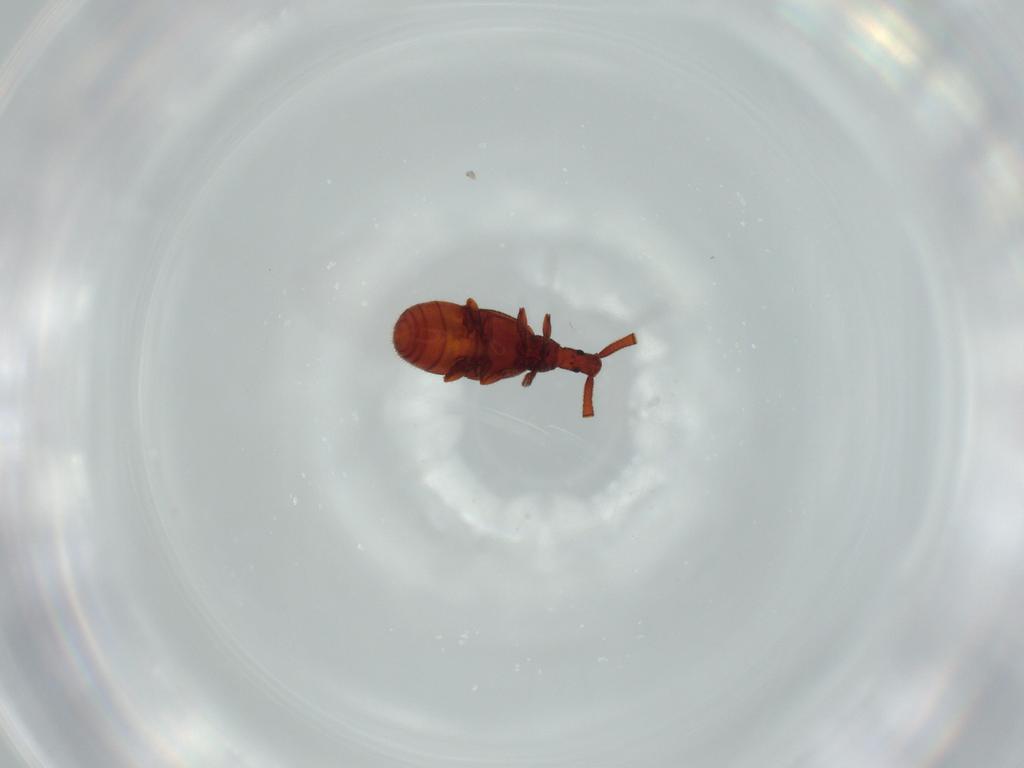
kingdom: Animalia
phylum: Arthropoda
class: Insecta
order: Coleoptera
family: Staphylinidae
